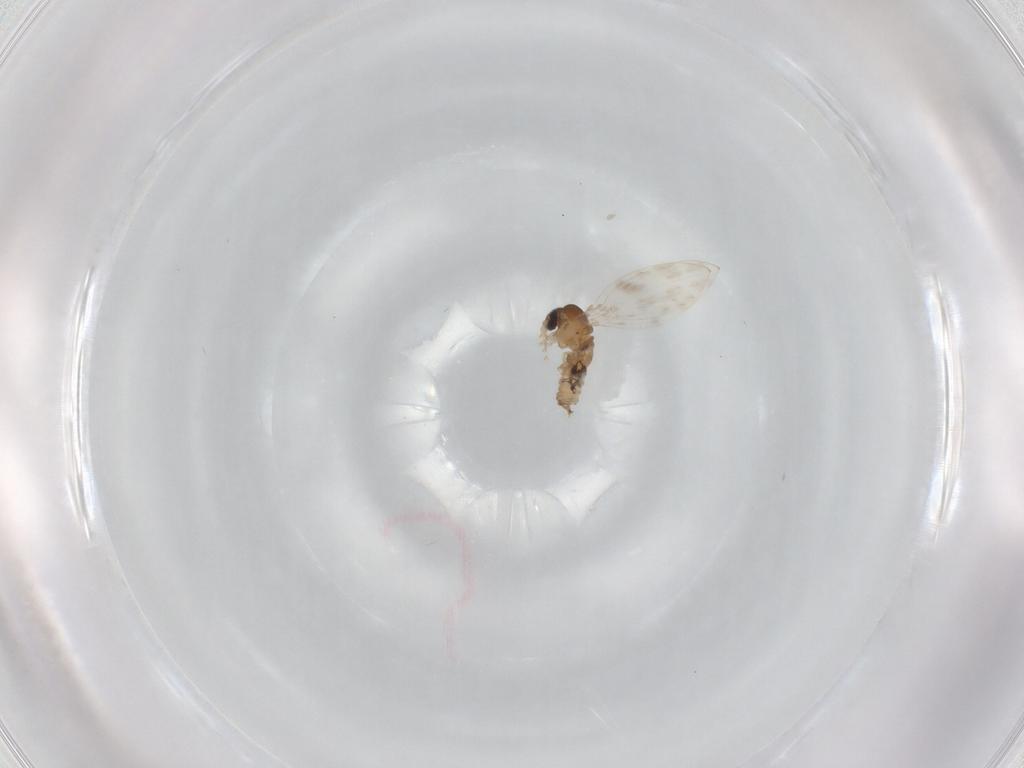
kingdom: Animalia
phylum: Arthropoda
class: Insecta
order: Diptera
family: Psychodidae
